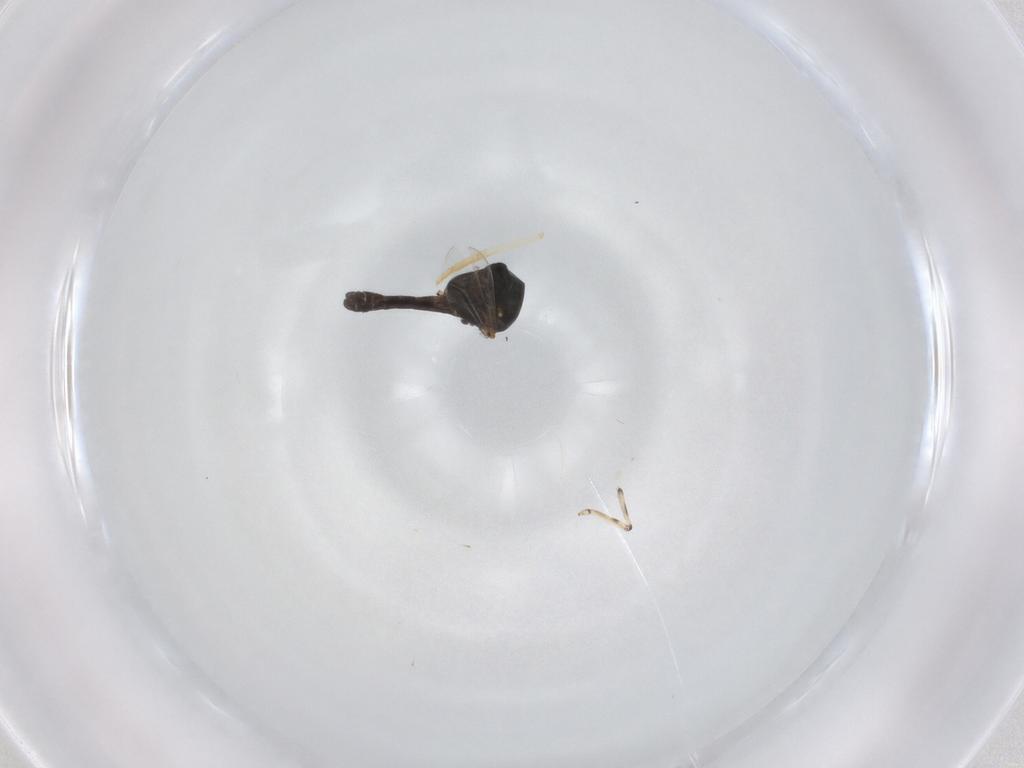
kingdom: Animalia
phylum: Arthropoda
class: Insecta
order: Diptera
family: Ceratopogonidae
